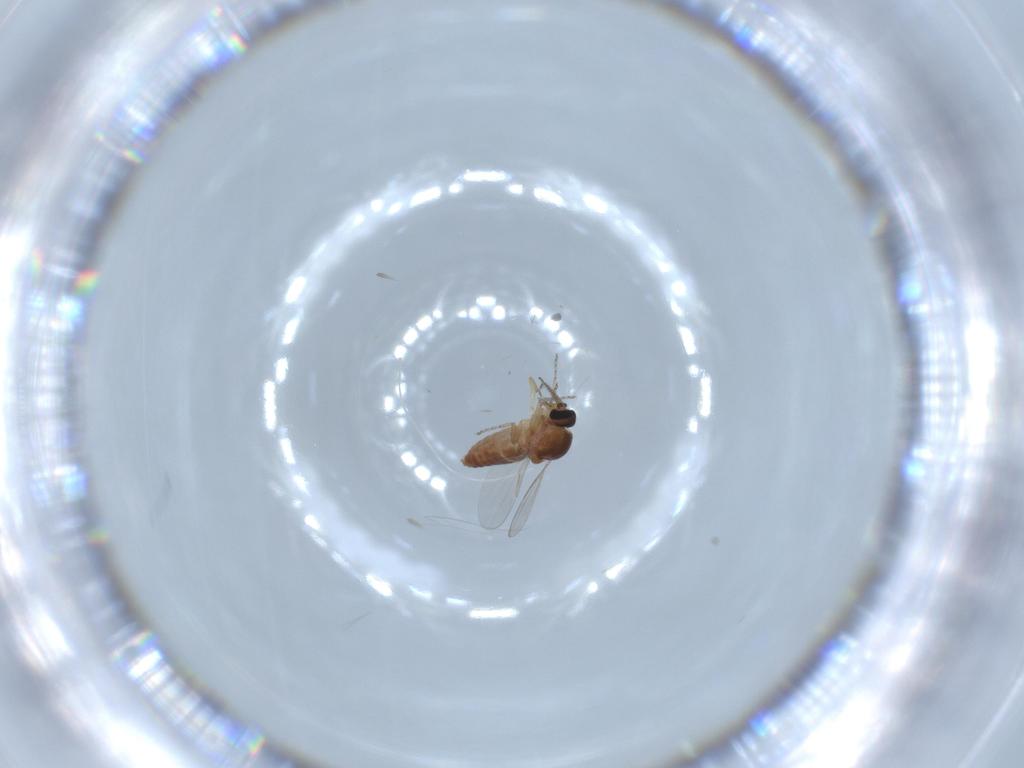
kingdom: Animalia
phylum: Arthropoda
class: Insecta
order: Diptera
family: Ceratopogonidae
